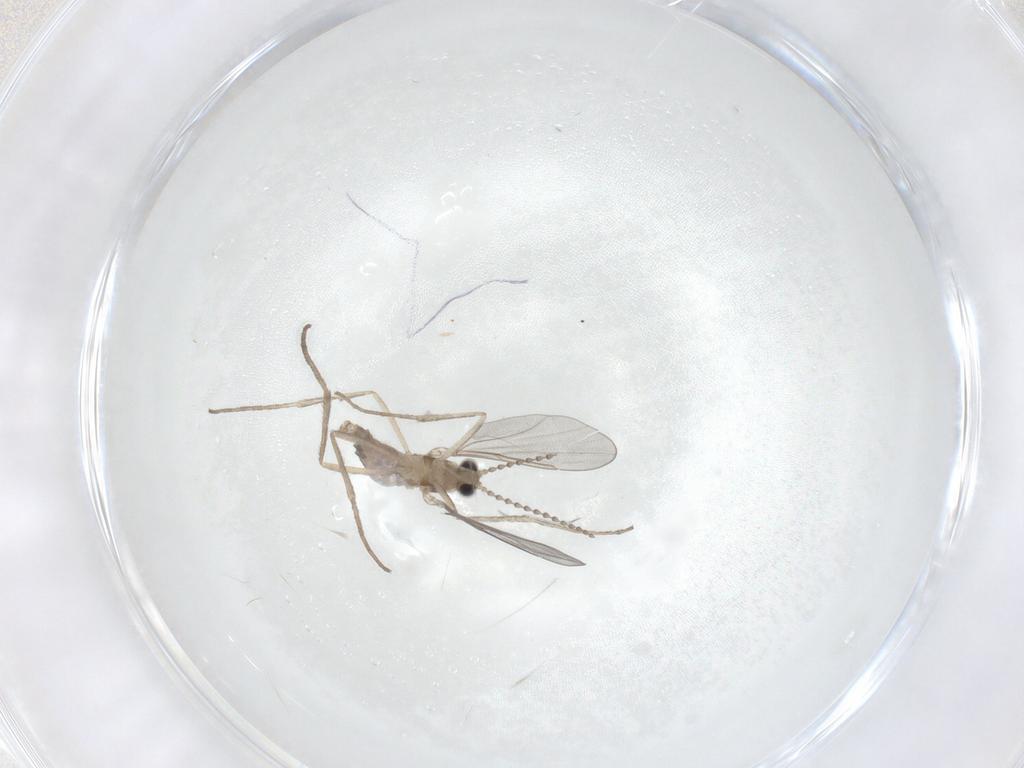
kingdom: Animalia
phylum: Arthropoda
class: Insecta
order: Diptera
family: Cecidomyiidae
